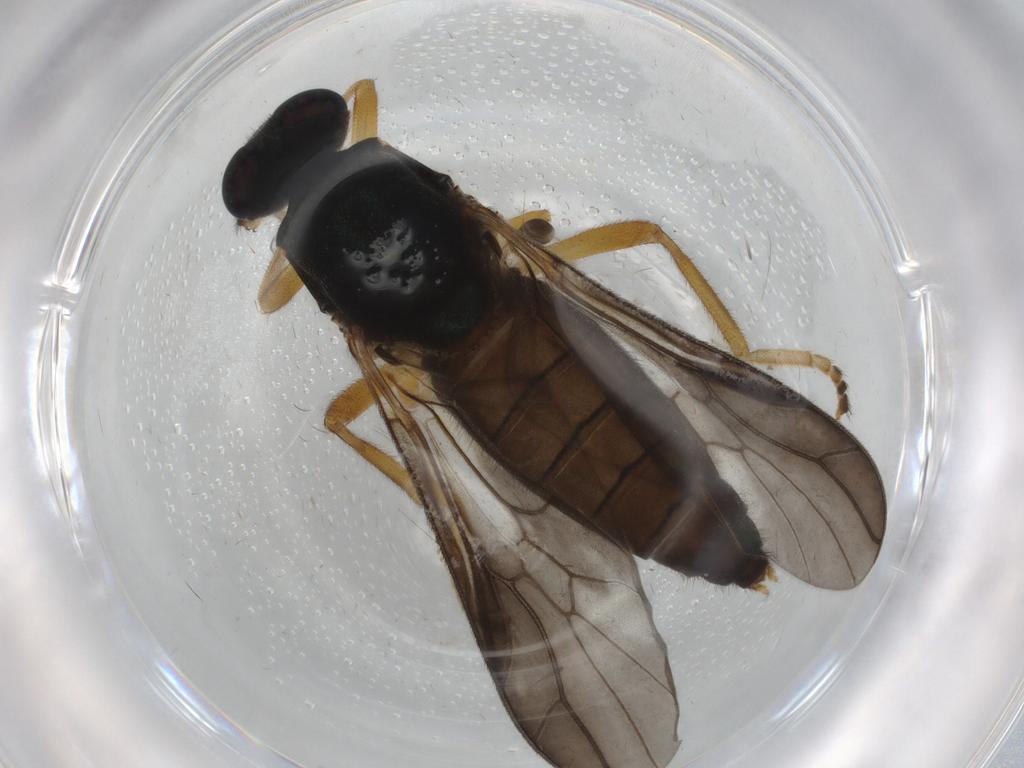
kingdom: Animalia
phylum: Arthropoda
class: Insecta
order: Diptera
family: Stratiomyidae
